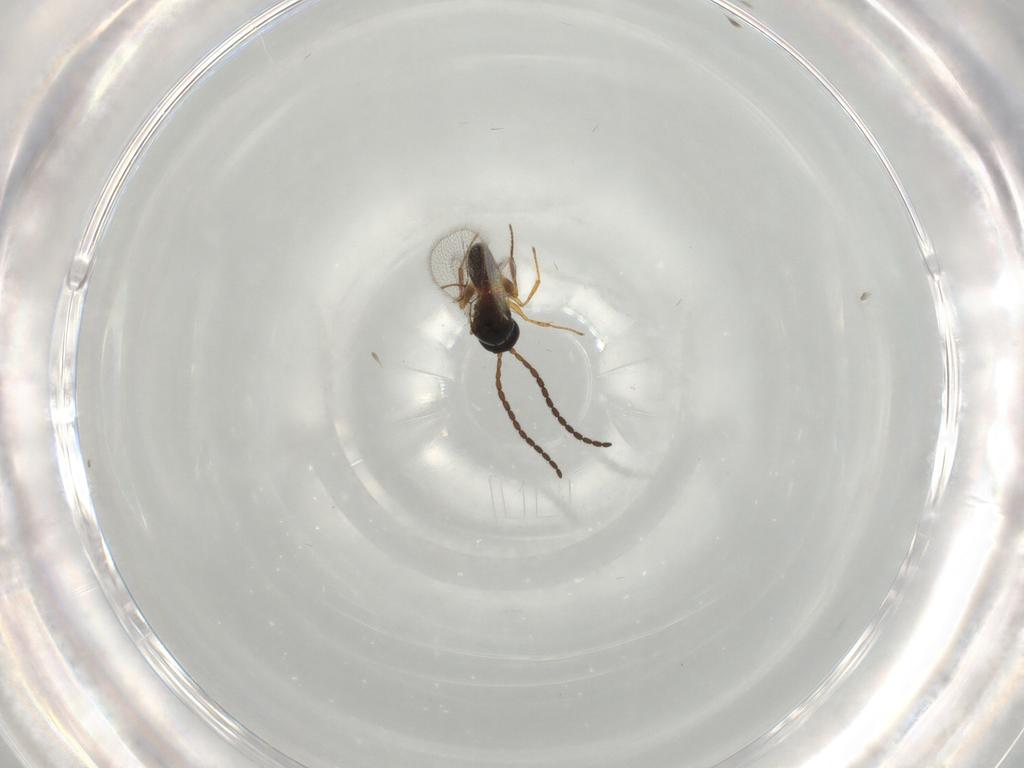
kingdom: Animalia
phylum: Arthropoda
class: Insecta
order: Hymenoptera
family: Figitidae
